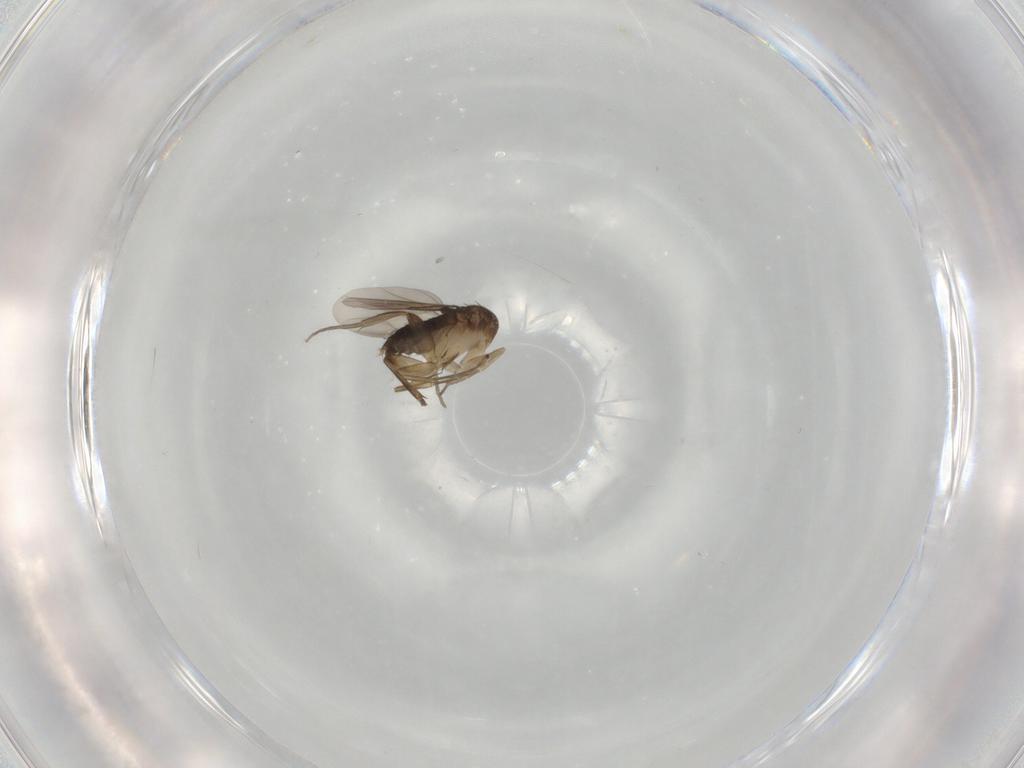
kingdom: Animalia
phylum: Arthropoda
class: Insecta
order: Diptera
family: Phoridae
